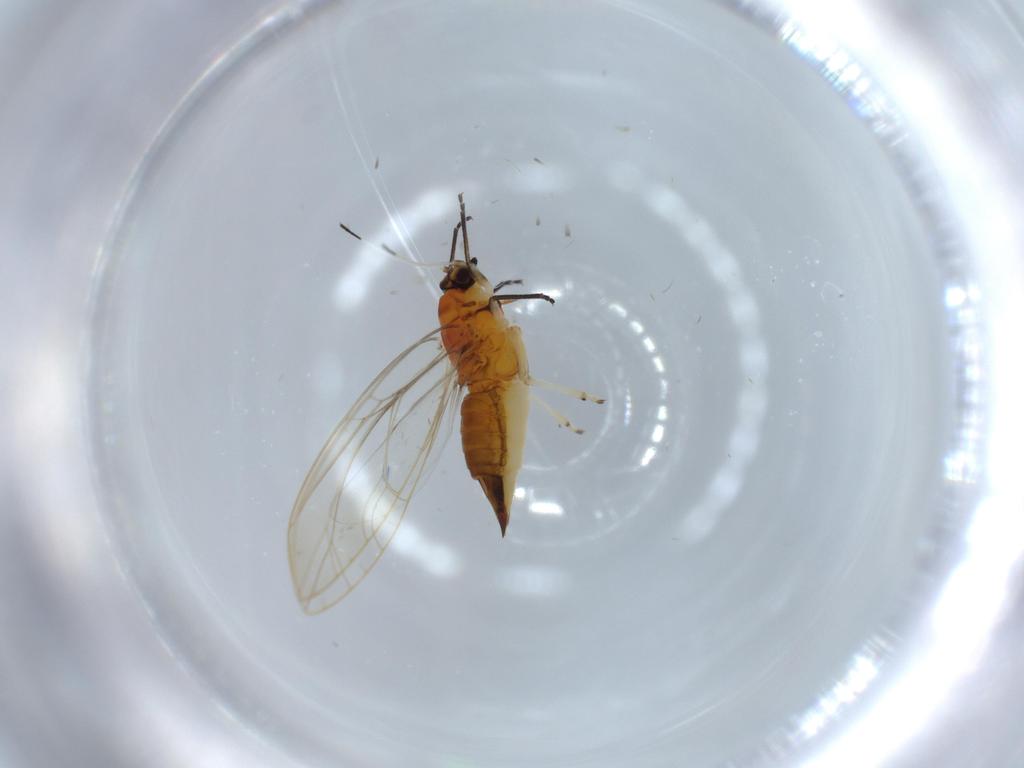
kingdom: Animalia
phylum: Arthropoda
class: Insecta
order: Hemiptera
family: Triozidae
